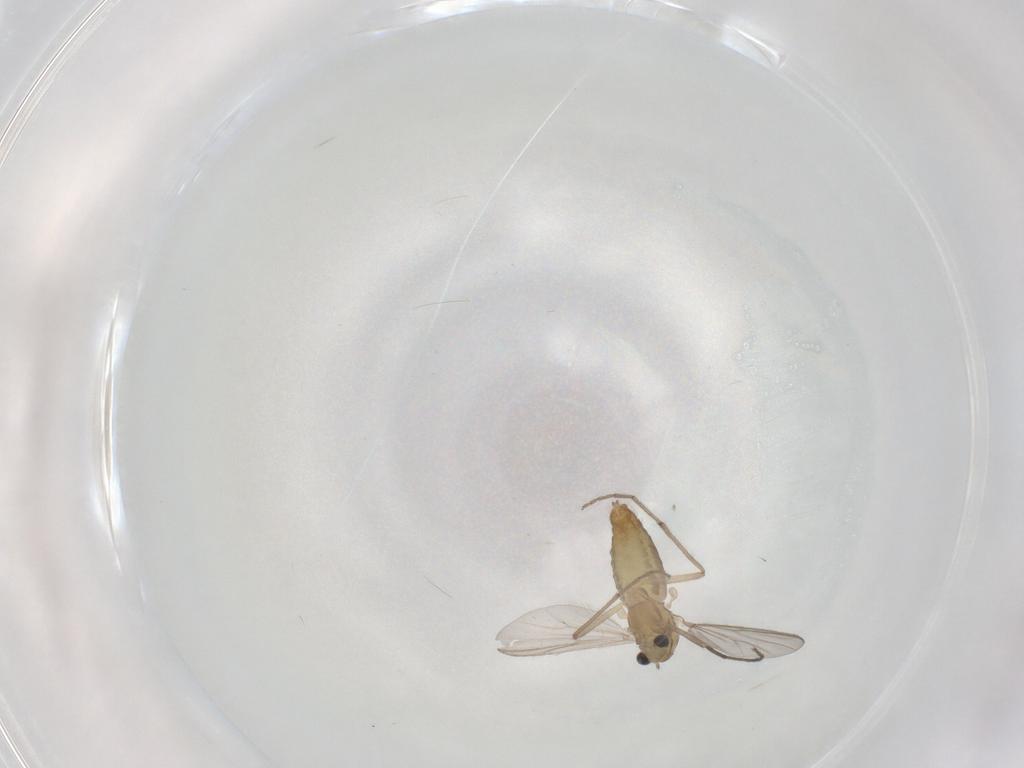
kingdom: Animalia
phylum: Arthropoda
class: Insecta
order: Diptera
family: Chironomidae
